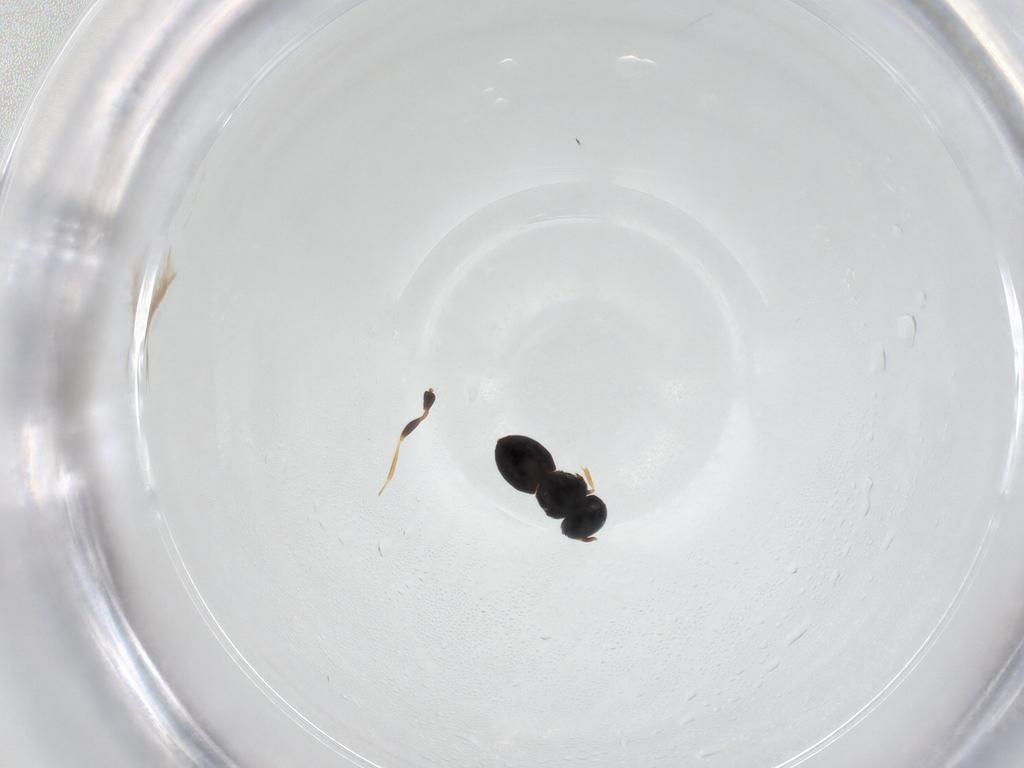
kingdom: Animalia
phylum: Arthropoda
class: Insecta
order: Hymenoptera
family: Scelionidae
